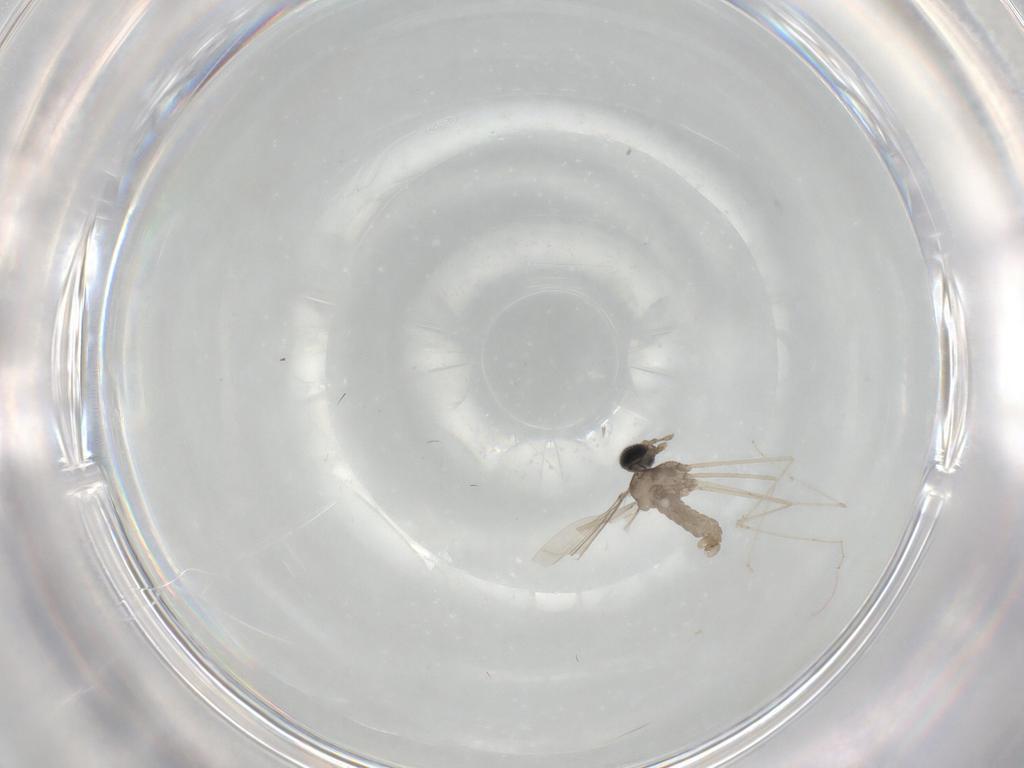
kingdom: Animalia
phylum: Arthropoda
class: Insecta
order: Diptera
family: Cecidomyiidae
